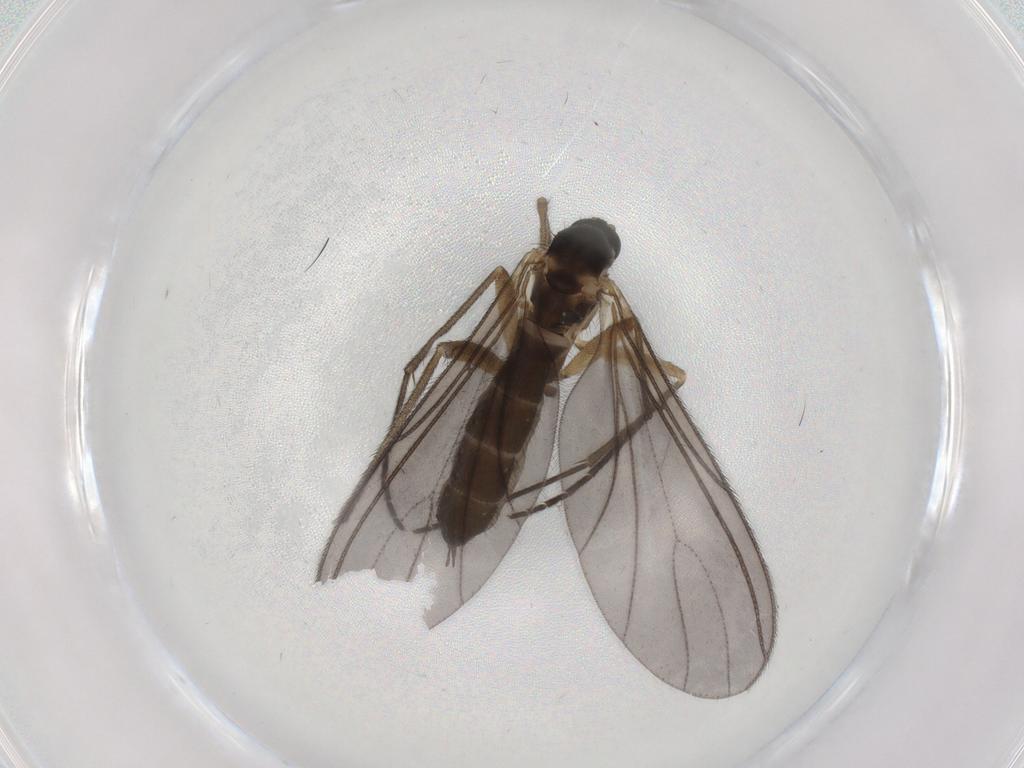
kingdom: Animalia
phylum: Arthropoda
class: Insecta
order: Diptera
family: Sciaridae
